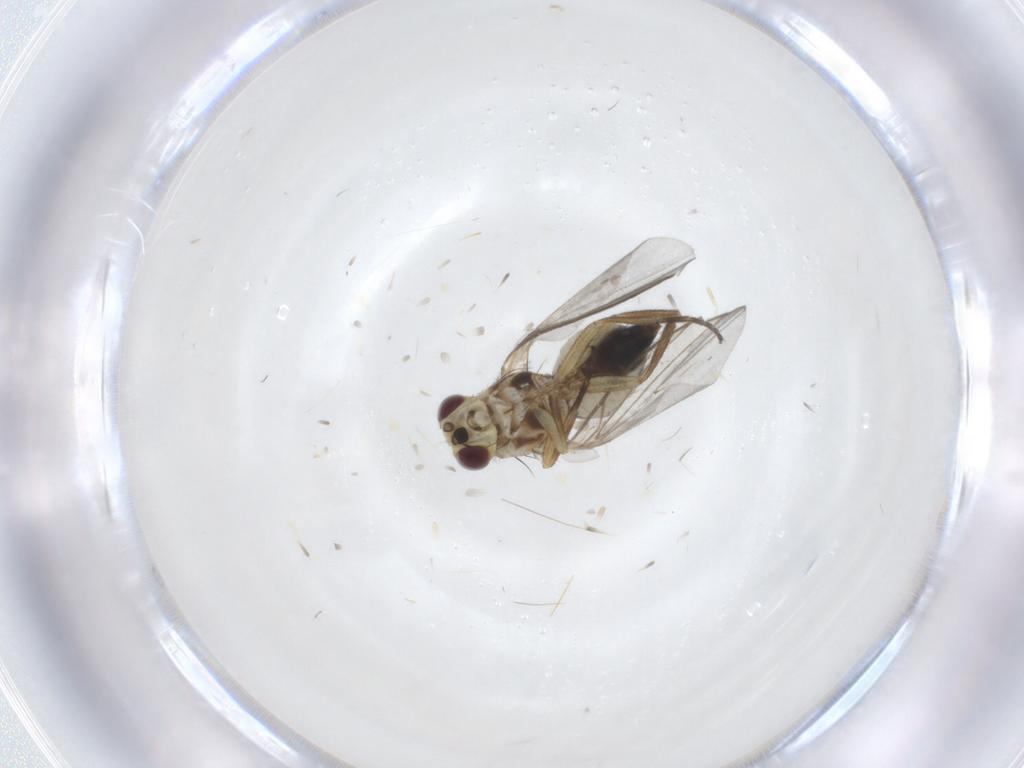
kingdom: Animalia
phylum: Arthropoda
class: Insecta
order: Diptera
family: Agromyzidae
